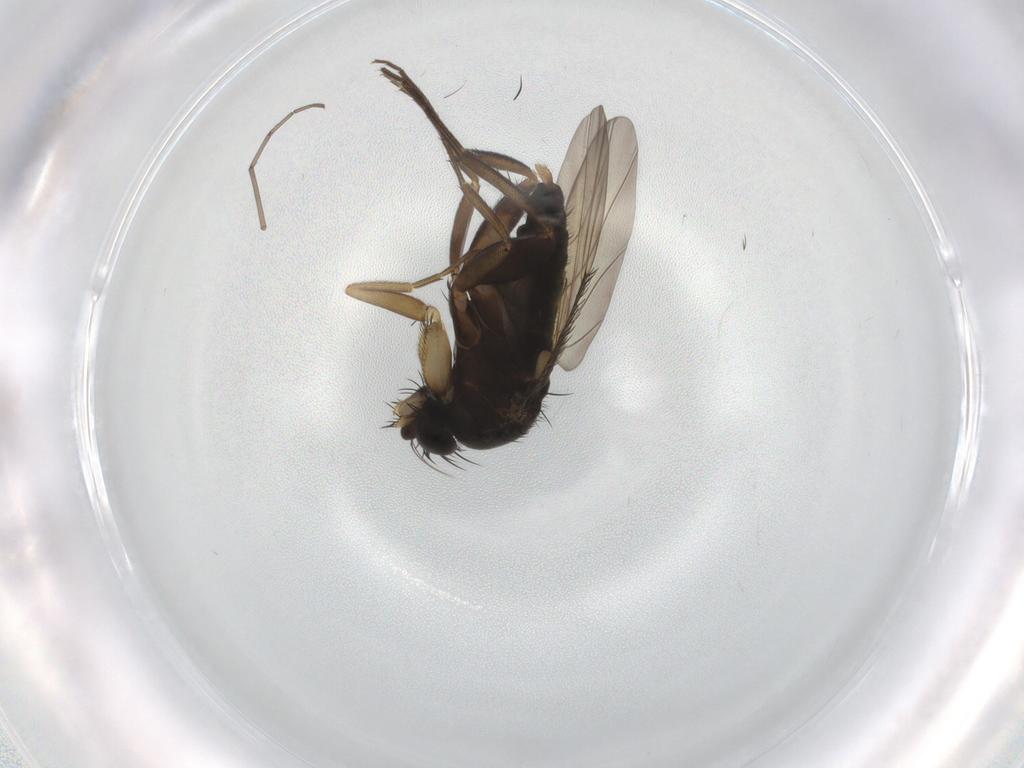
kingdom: Animalia
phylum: Arthropoda
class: Insecta
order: Diptera
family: Phoridae
